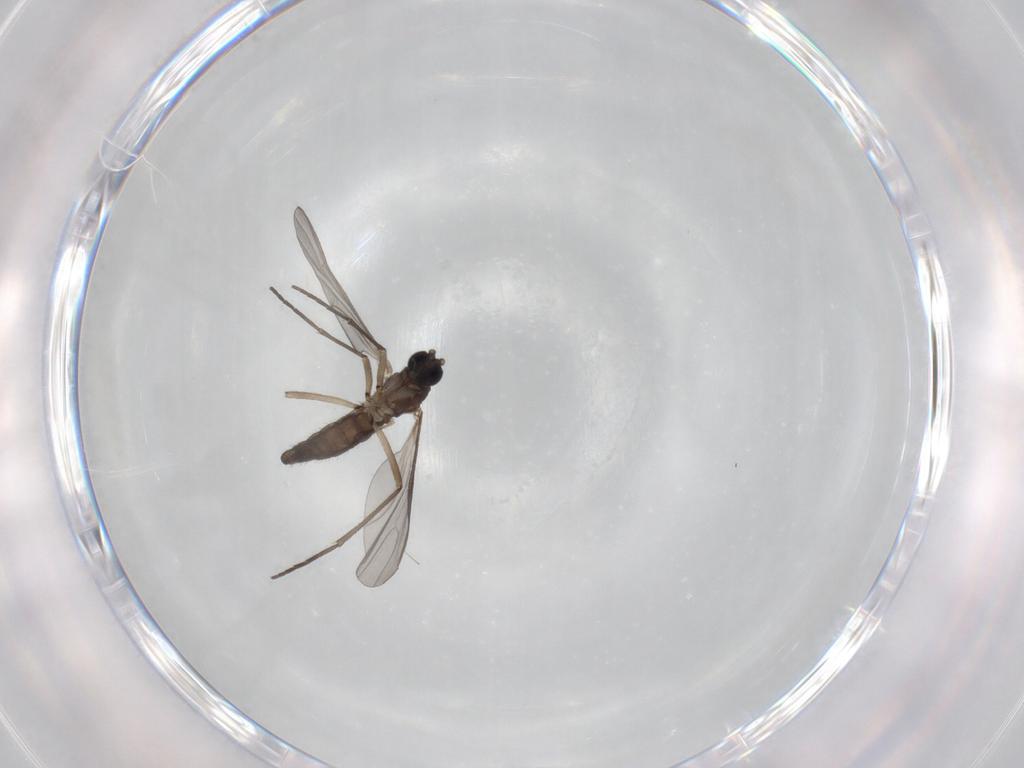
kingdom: Animalia
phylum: Arthropoda
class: Insecta
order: Diptera
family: Sciaridae
